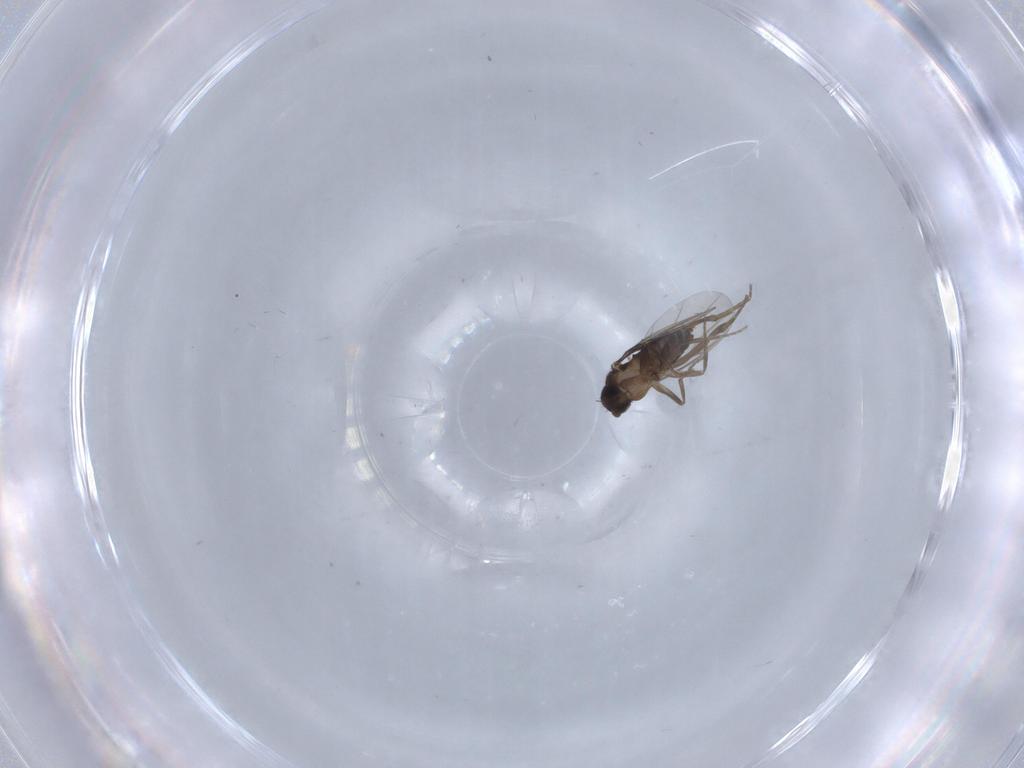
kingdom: Animalia
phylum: Arthropoda
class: Insecta
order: Diptera
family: Phoridae
